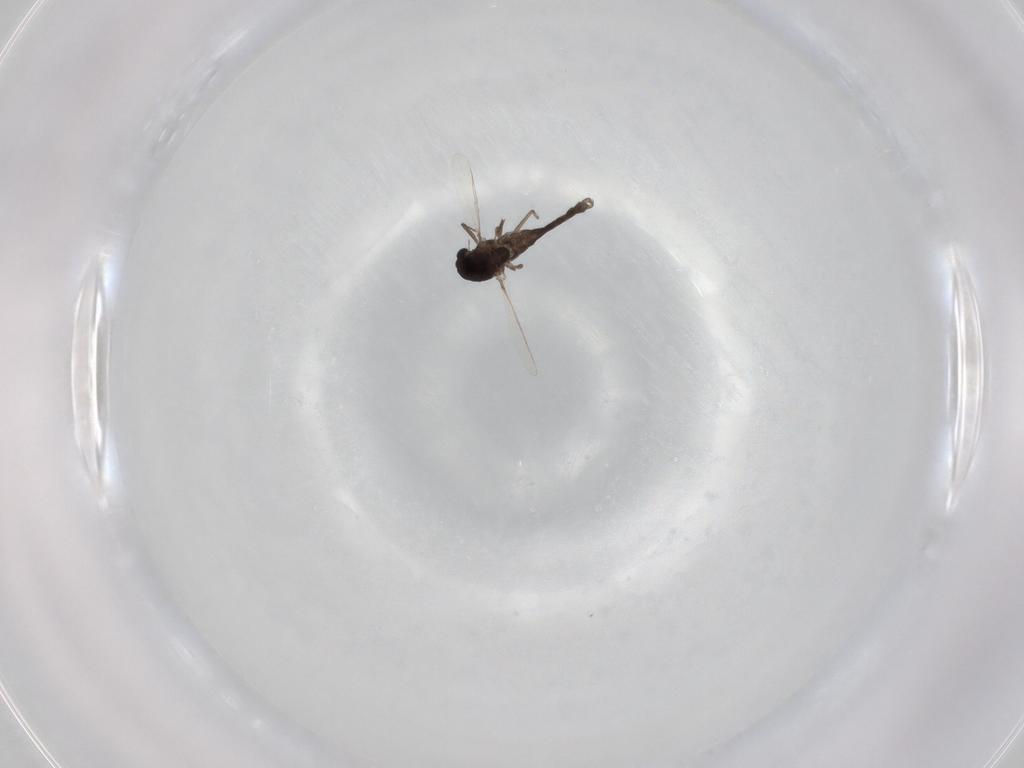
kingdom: Animalia
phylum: Arthropoda
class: Insecta
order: Diptera
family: Chironomidae
